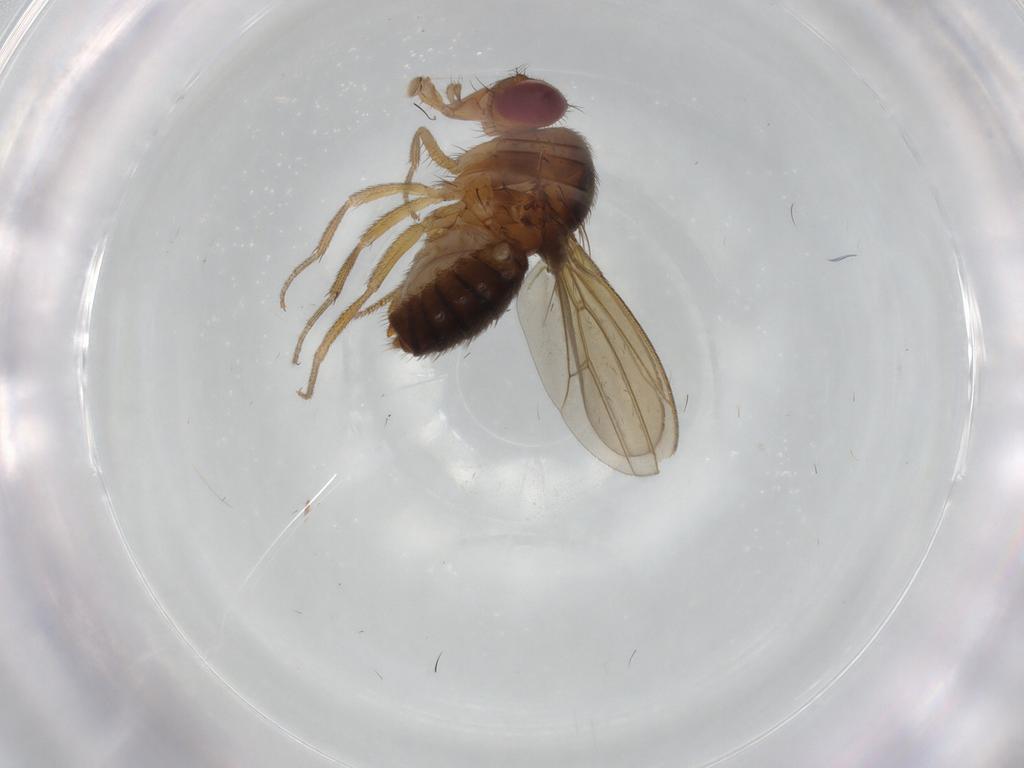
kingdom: Animalia
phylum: Arthropoda
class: Insecta
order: Diptera
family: Drosophilidae
